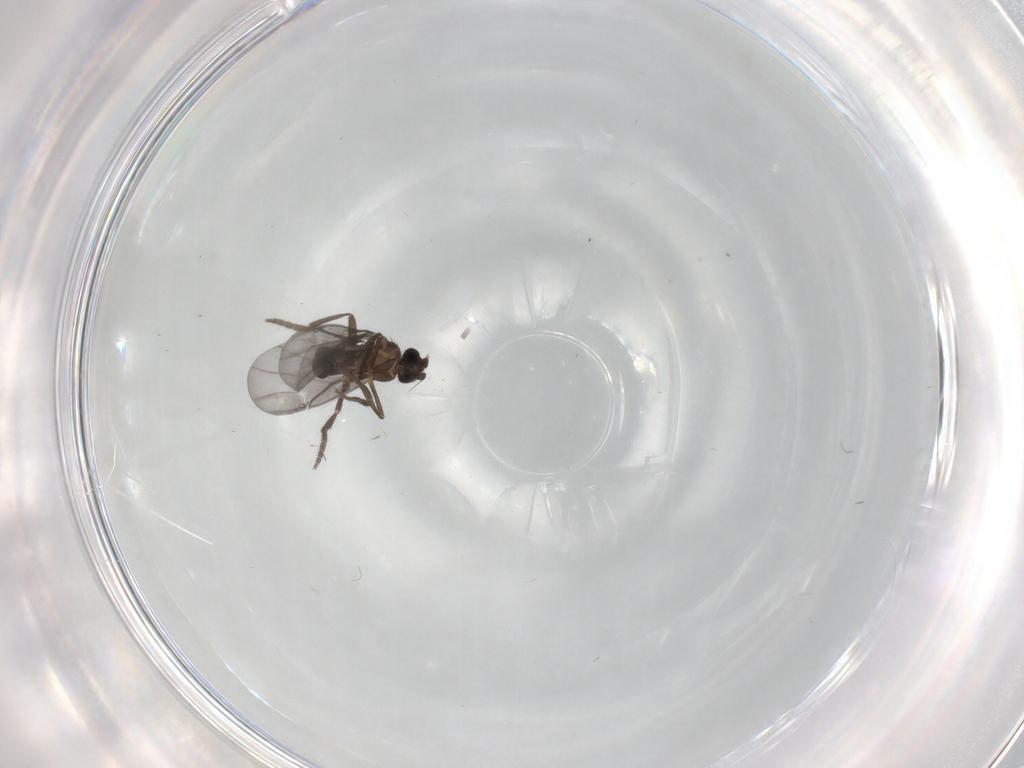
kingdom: Animalia
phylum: Arthropoda
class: Insecta
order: Diptera
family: Phoridae
